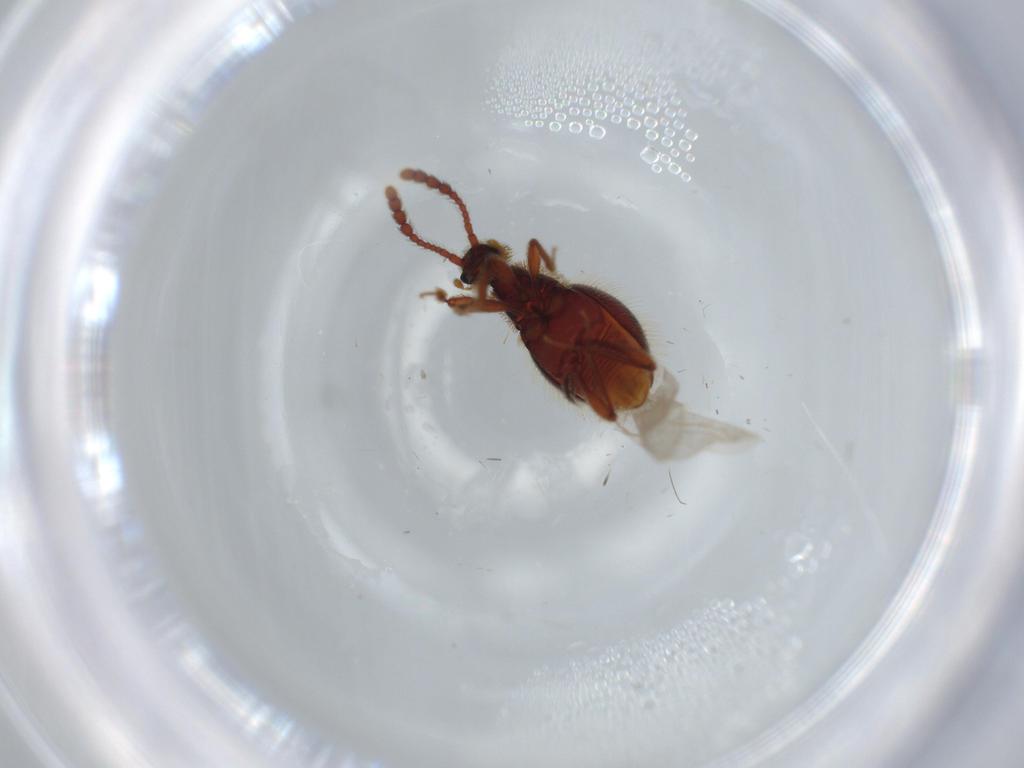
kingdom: Animalia
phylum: Arthropoda
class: Insecta
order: Coleoptera
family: Staphylinidae
